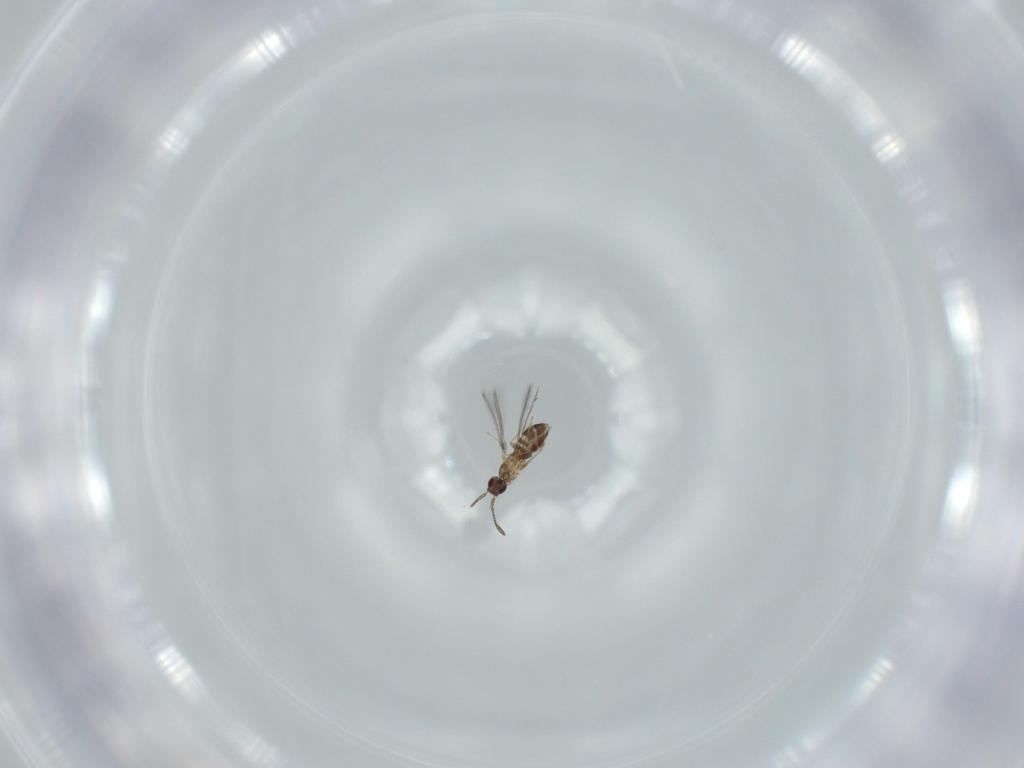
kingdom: Animalia
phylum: Arthropoda
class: Insecta
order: Hymenoptera
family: Mymaridae
